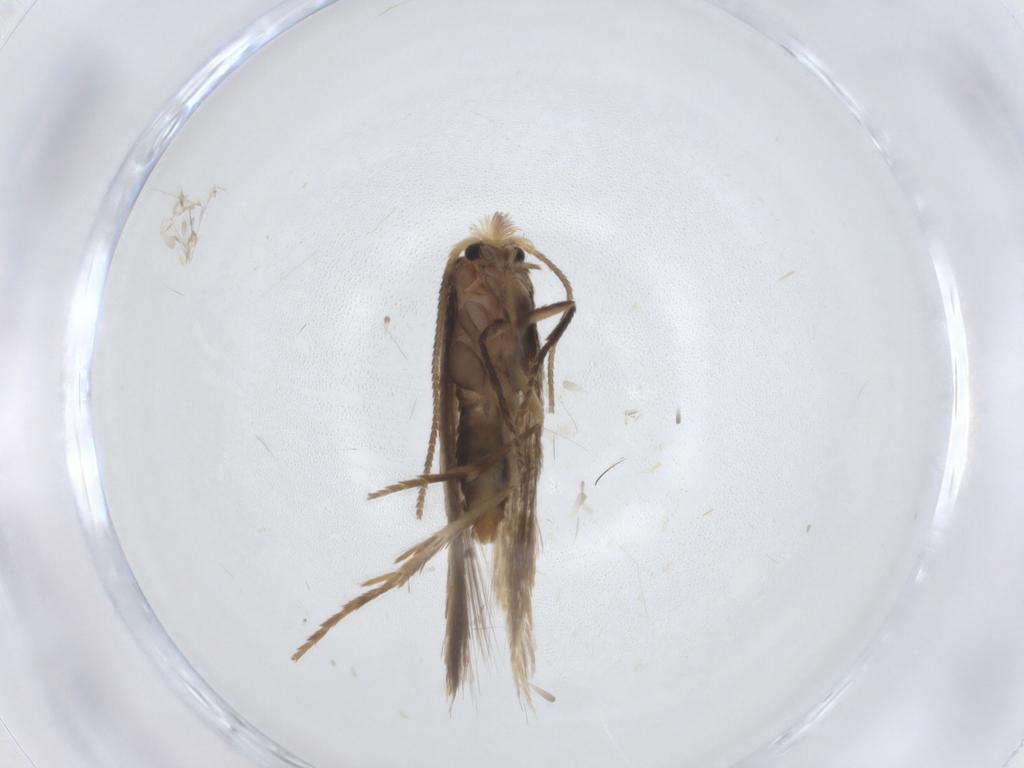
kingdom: Animalia
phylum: Arthropoda
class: Insecta
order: Lepidoptera
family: Nepticulidae
